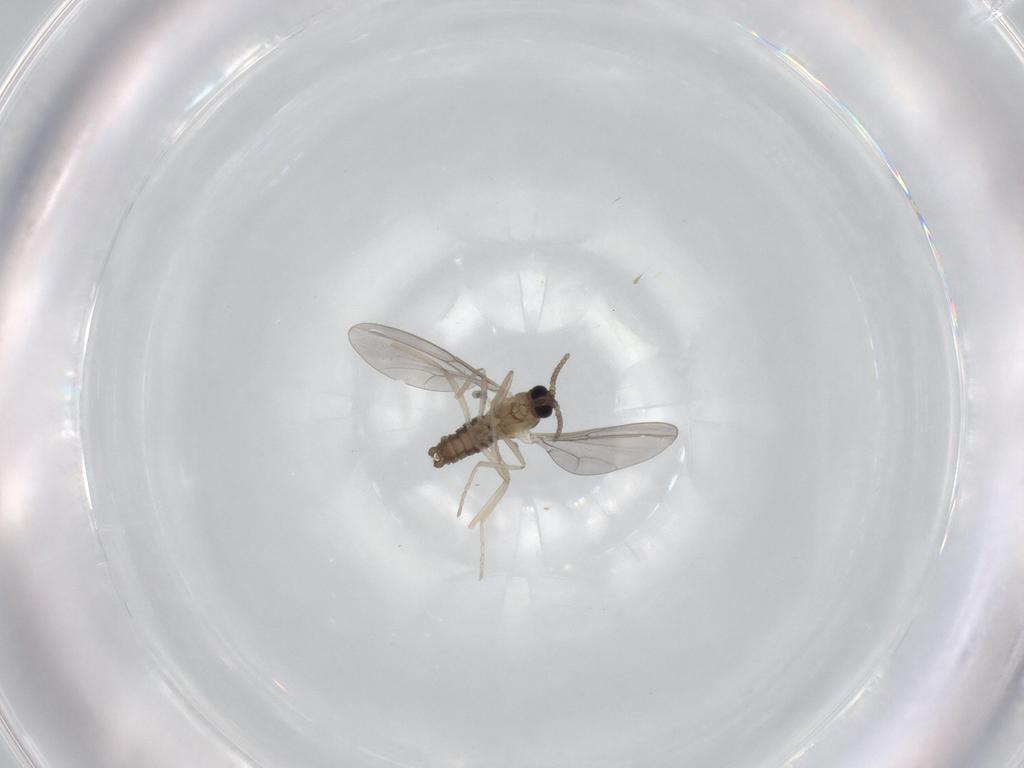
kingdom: Animalia
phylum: Arthropoda
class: Insecta
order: Diptera
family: Cecidomyiidae
